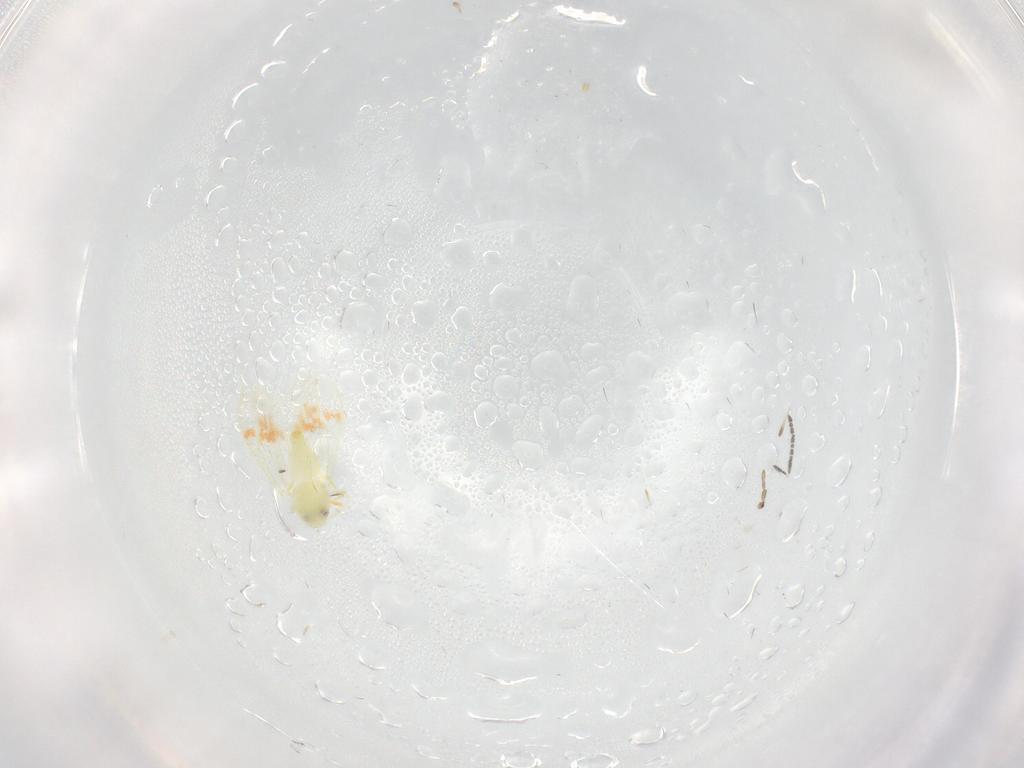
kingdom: Animalia
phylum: Arthropoda
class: Insecta
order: Hemiptera
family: Aleyrodidae
